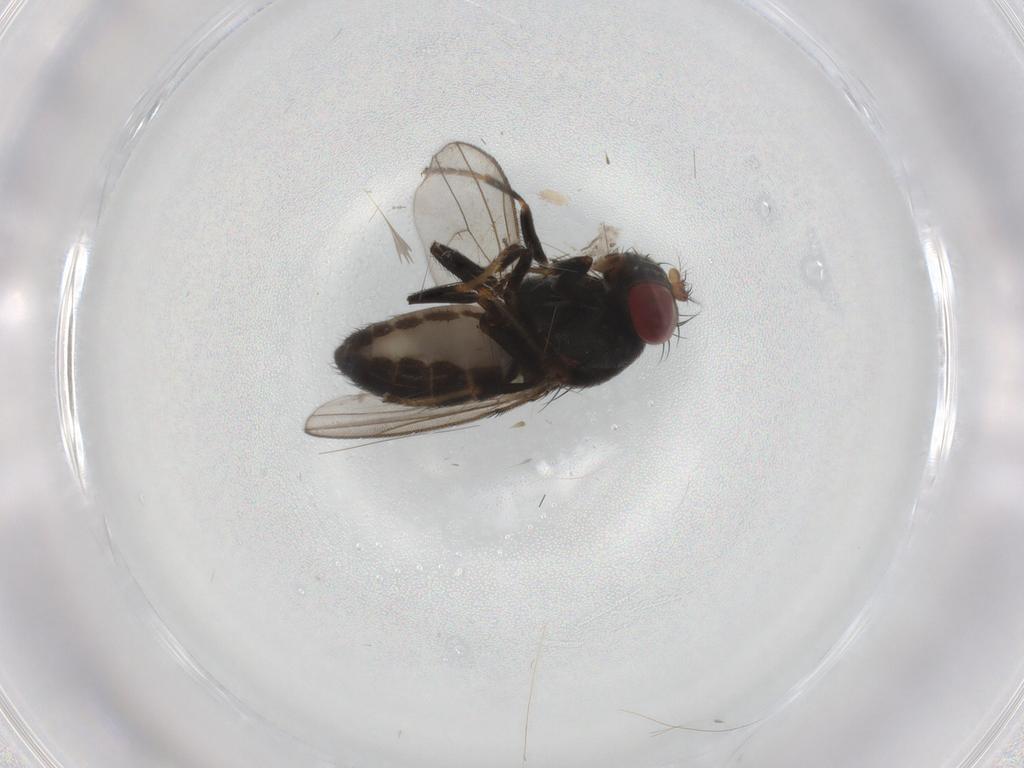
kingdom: Animalia
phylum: Arthropoda
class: Insecta
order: Diptera
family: Ephydridae
